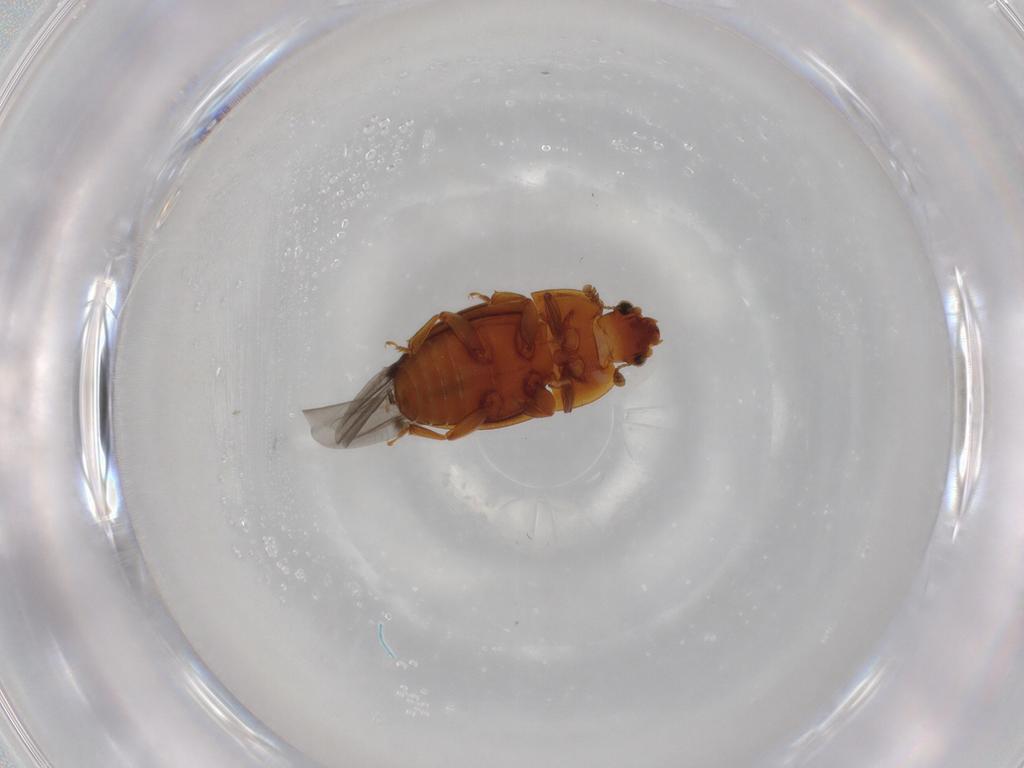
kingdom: Animalia
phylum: Arthropoda
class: Insecta
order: Coleoptera
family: Nitidulidae
